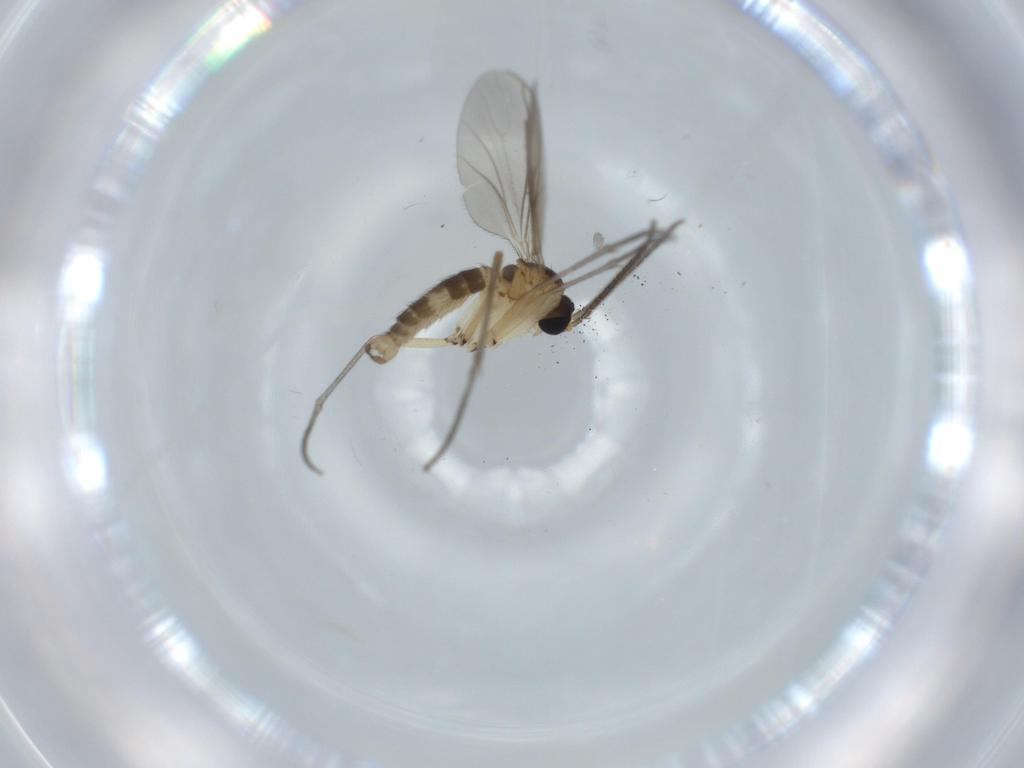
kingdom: Animalia
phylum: Arthropoda
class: Insecta
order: Diptera
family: Sciaridae
